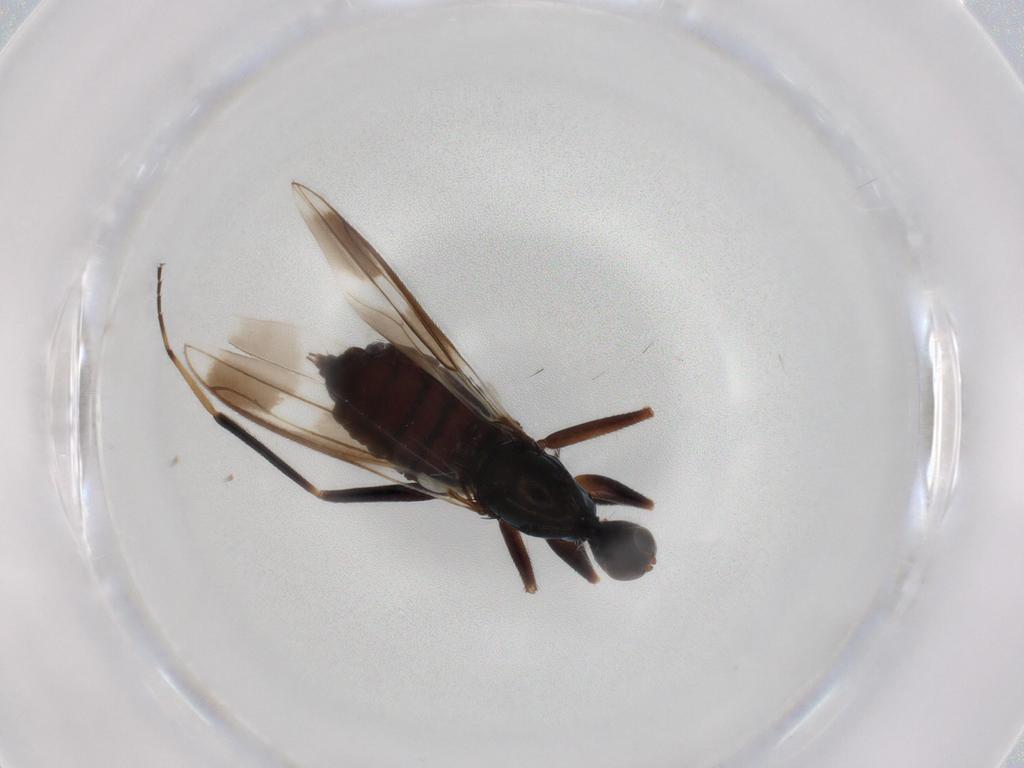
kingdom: Animalia
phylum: Arthropoda
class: Insecta
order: Diptera
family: Hybotidae
